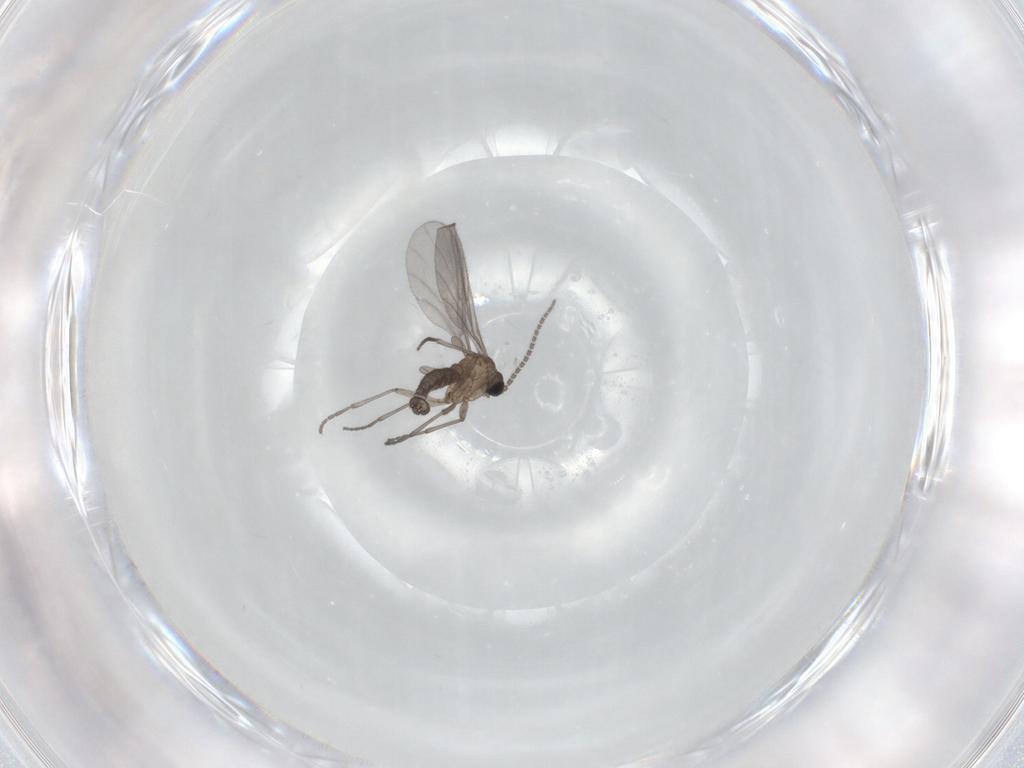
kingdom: Animalia
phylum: Arthropoda
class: Insecta
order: Diptera
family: Sciaridae
